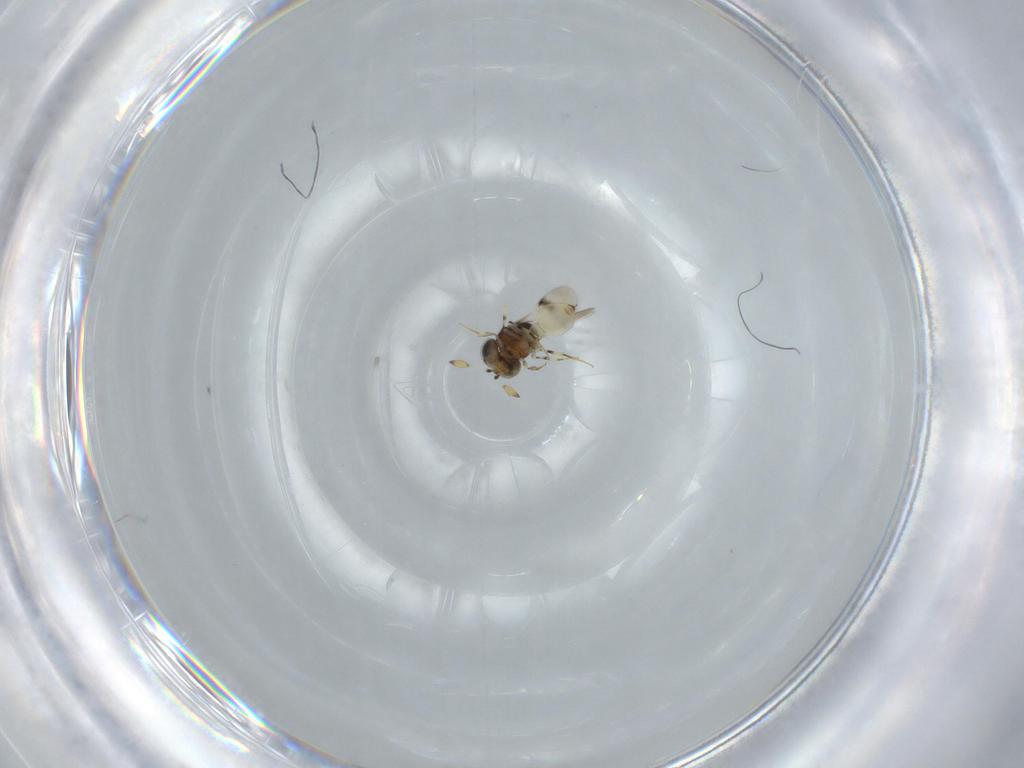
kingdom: Animalia
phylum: Arthropoda
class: Insecta
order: Hymenoptera
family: Scelionidae
